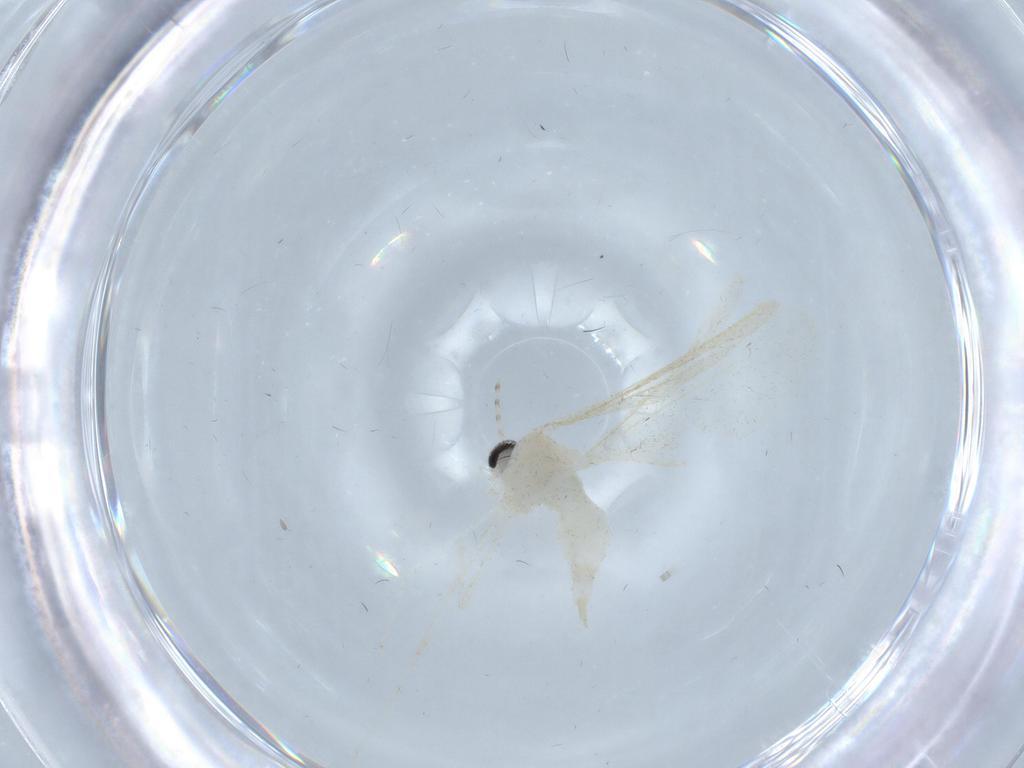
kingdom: Animalia
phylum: Arthropoda
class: Insecta
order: Diptera
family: Cecidomyiidae
